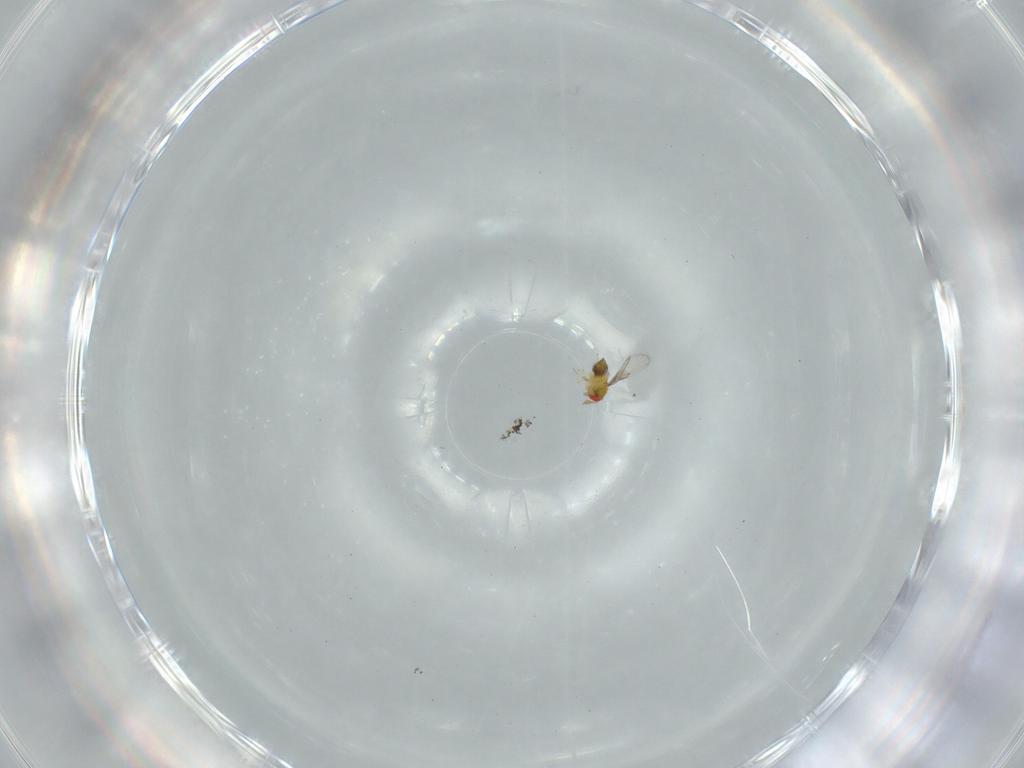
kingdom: Animalia
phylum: Arthropoda
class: Insecta
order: Hymenoptera
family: Trichogrammatidae
